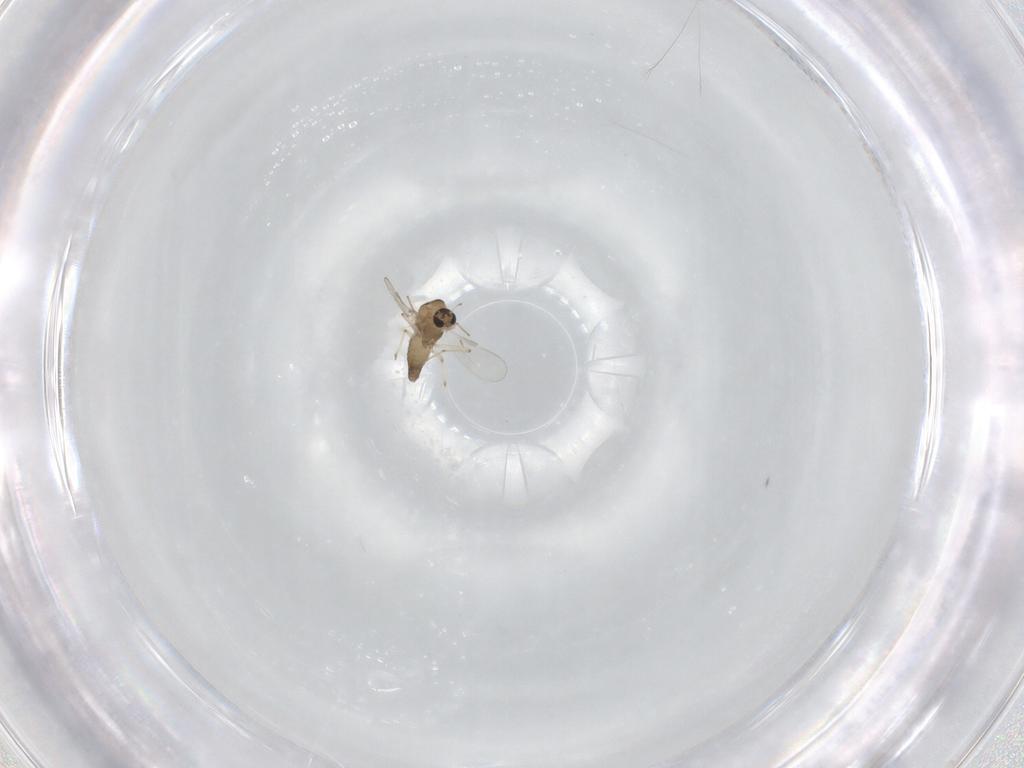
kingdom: Animalia
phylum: Arthropoda
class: Insecta
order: Diptera
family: Chironomidae
